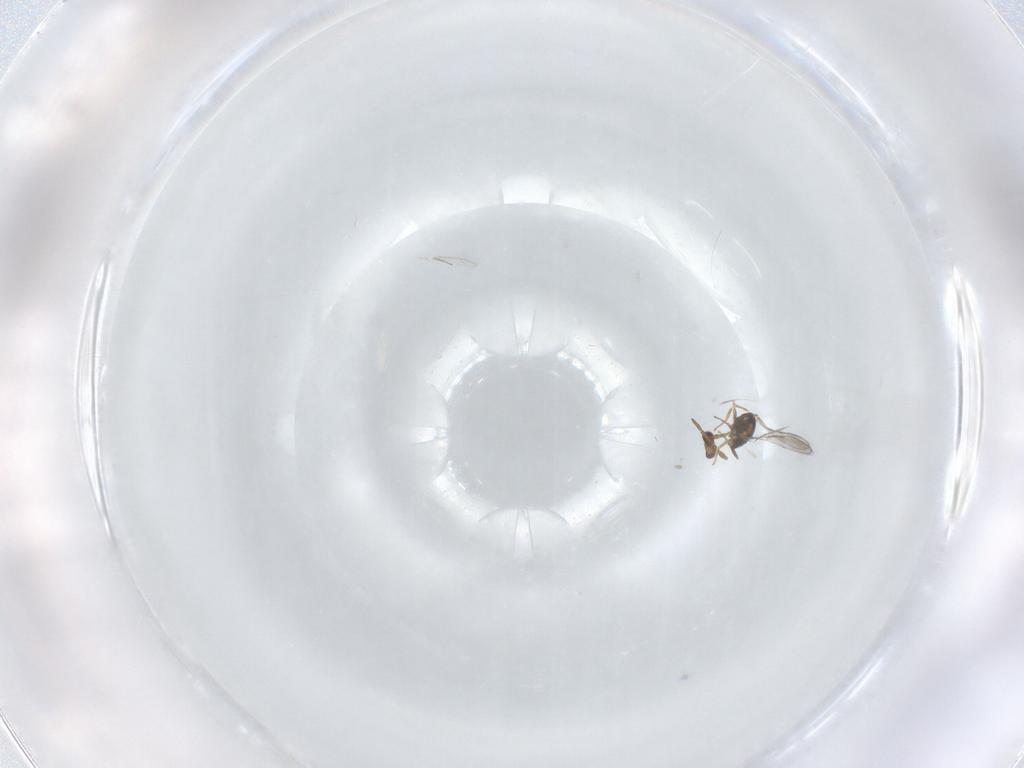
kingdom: Animalia
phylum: Arthropoda
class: Insecta
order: Hymenoptera
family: Aphelinidae
